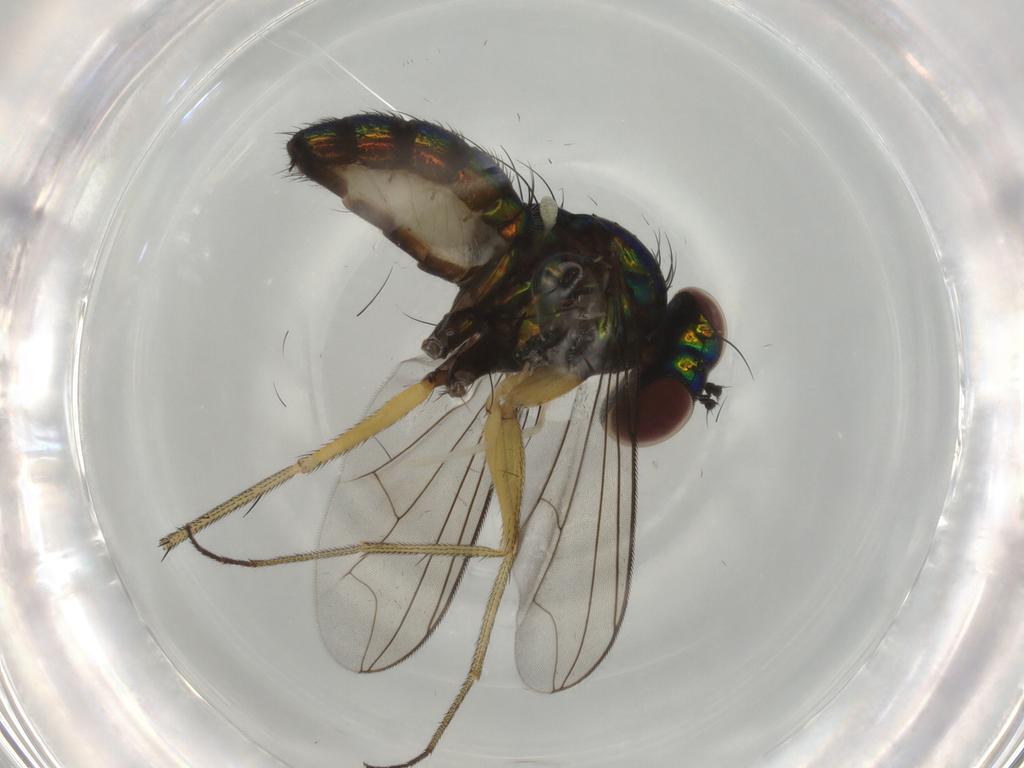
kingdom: Animalia
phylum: Arthropoda
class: Insecta
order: Diptera
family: Dolichopodidae
